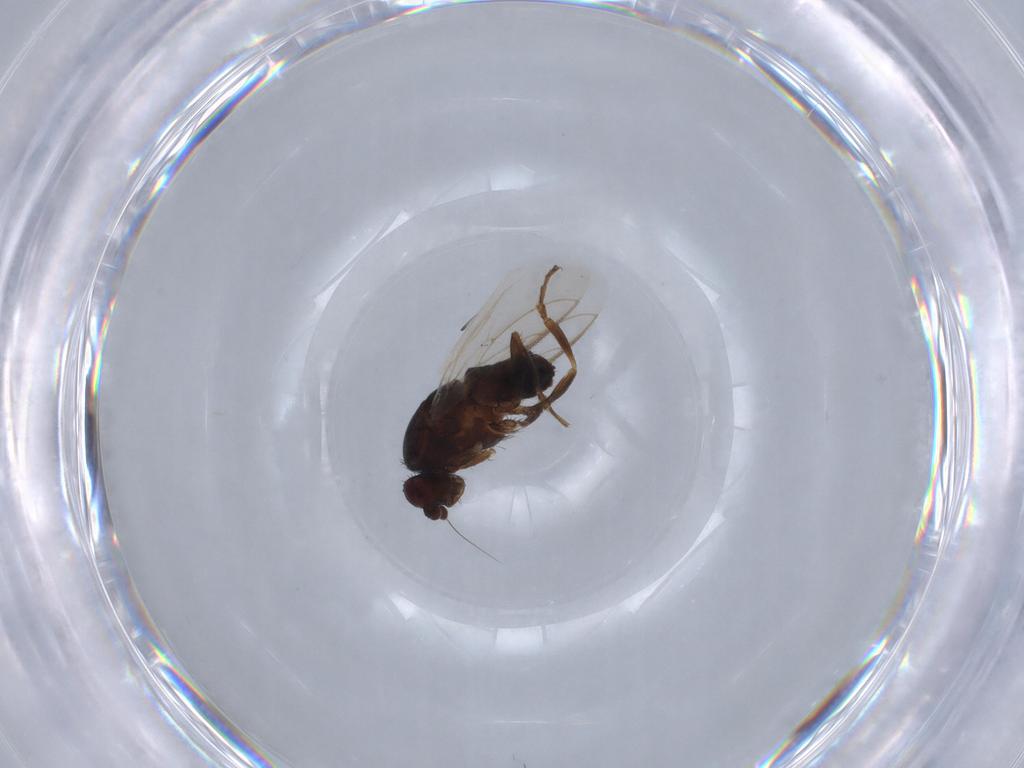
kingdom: Animalia
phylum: Arthropoda
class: Insecta
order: Diptera
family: Sphaeroceridae
